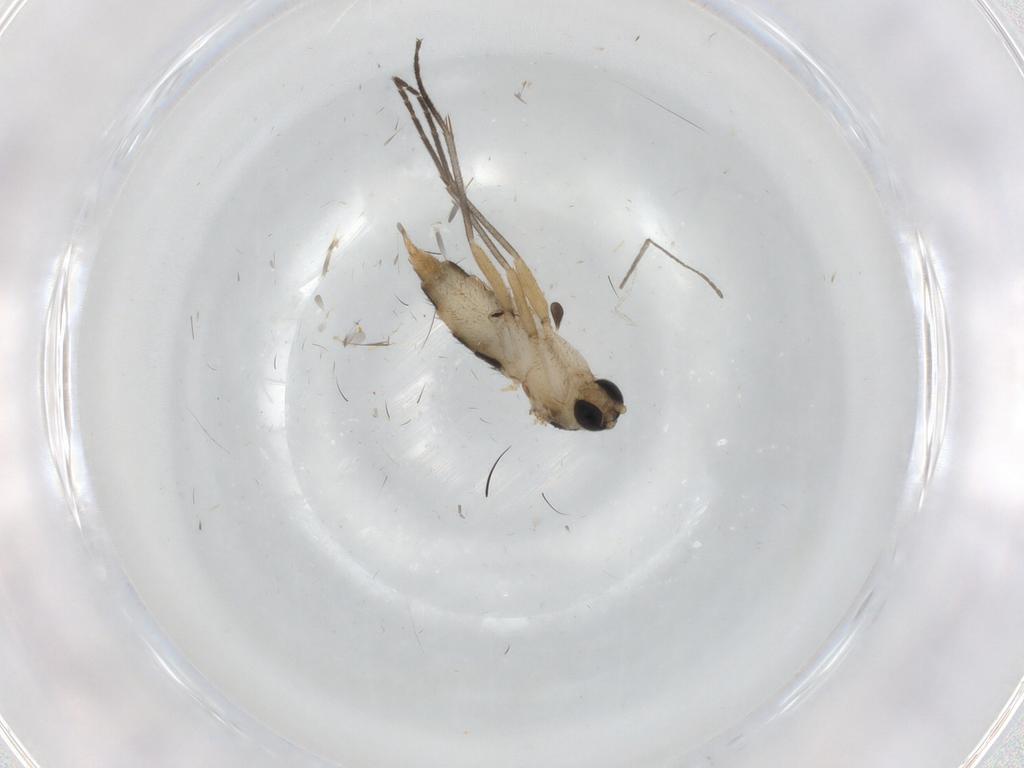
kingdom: Animalia
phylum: Arthropoda
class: Insecta
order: Diptera
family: Cecidomyiidae
